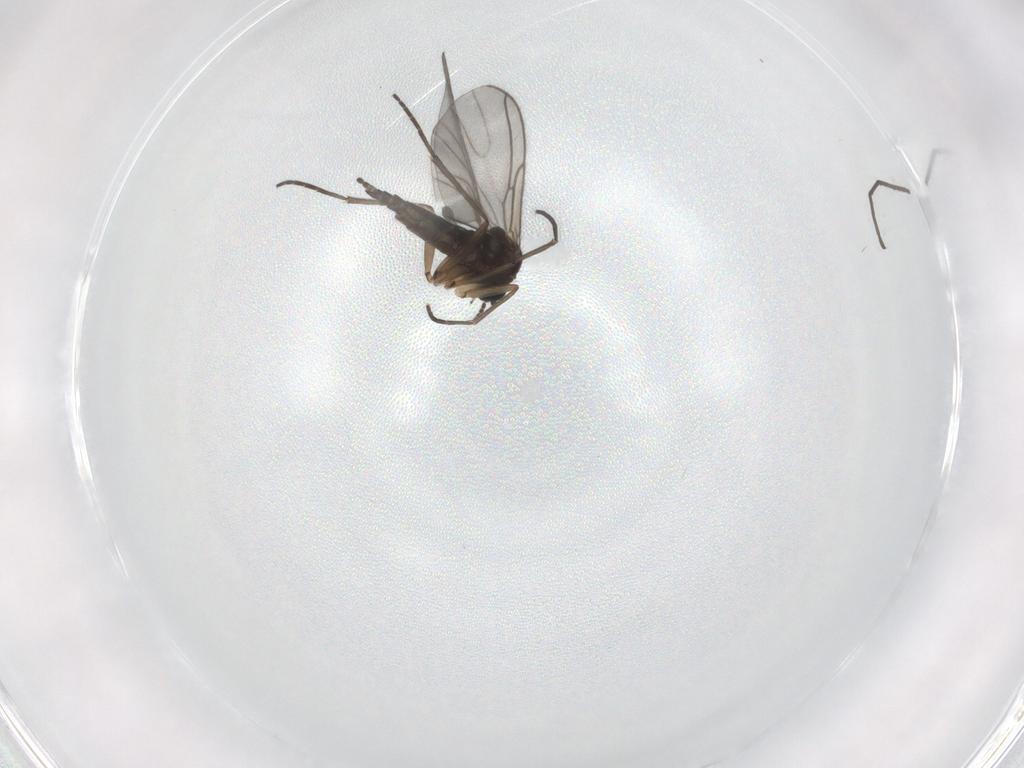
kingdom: Animalia
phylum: Arthropoda
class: Insecta
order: Diptera
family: Sciaridae
